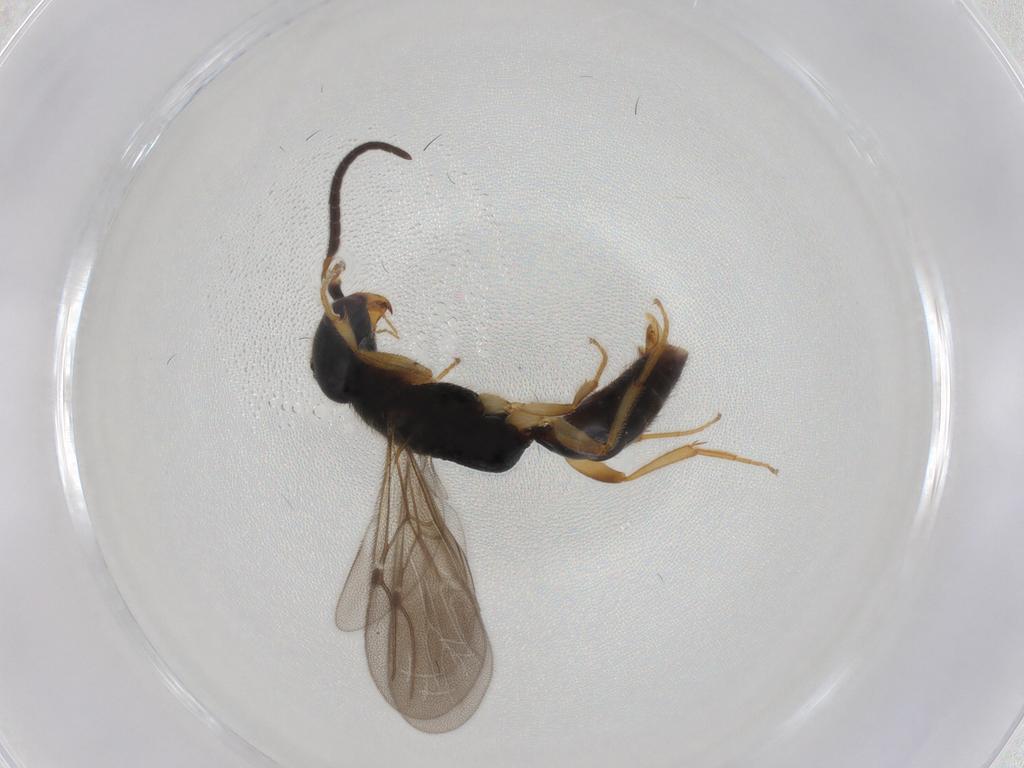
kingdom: Animalia
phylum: Arthropoda
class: Insecta
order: Hymenoptera
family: Bethylidae
